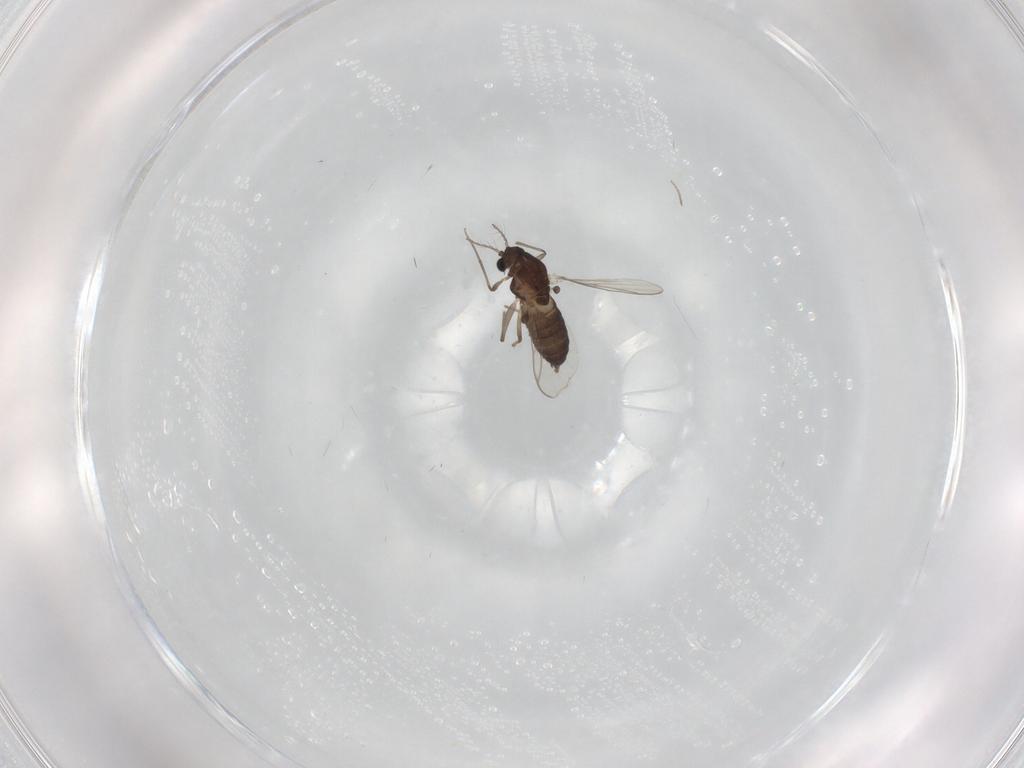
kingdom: Animalia
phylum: Arthropoda
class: Insecta
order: Diptera
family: Chironomidae
